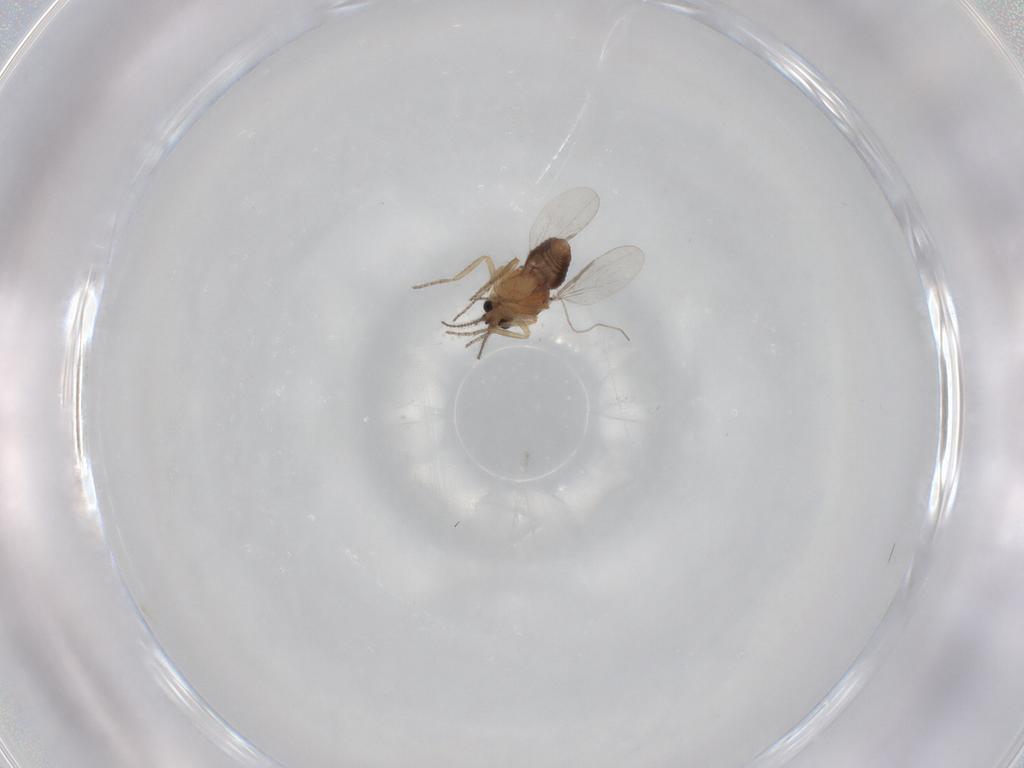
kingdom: Animalia
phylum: Arthropoda
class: Insecta
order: Diptera
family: Ceratopogonidae
